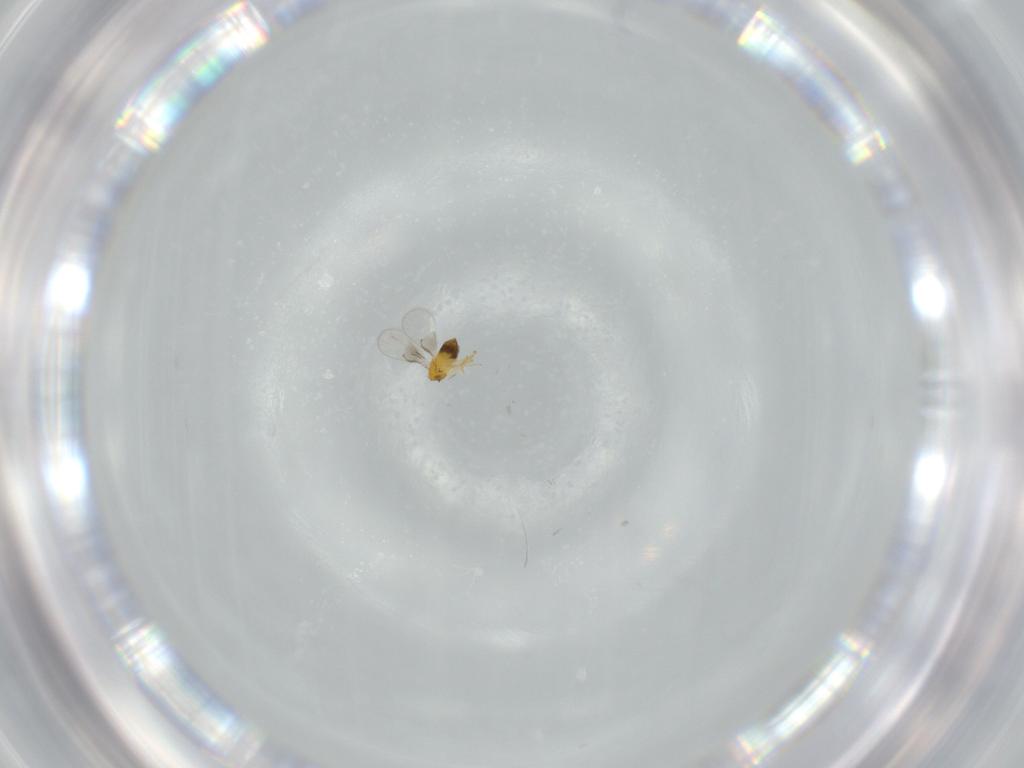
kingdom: Animalia
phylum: Arthropoda
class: Insecta
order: Hymenoptera
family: Trichogrammatidae
